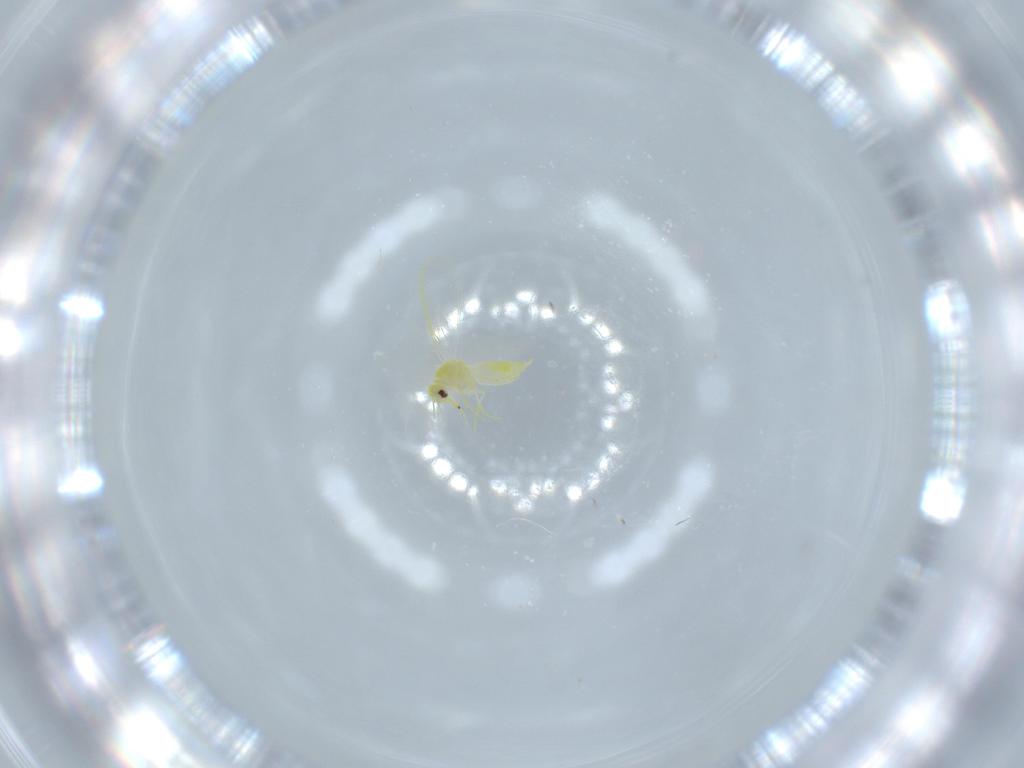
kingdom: Animalia
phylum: Arthropoda
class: Insecta
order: Hemiptera
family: Aleyrodidae
